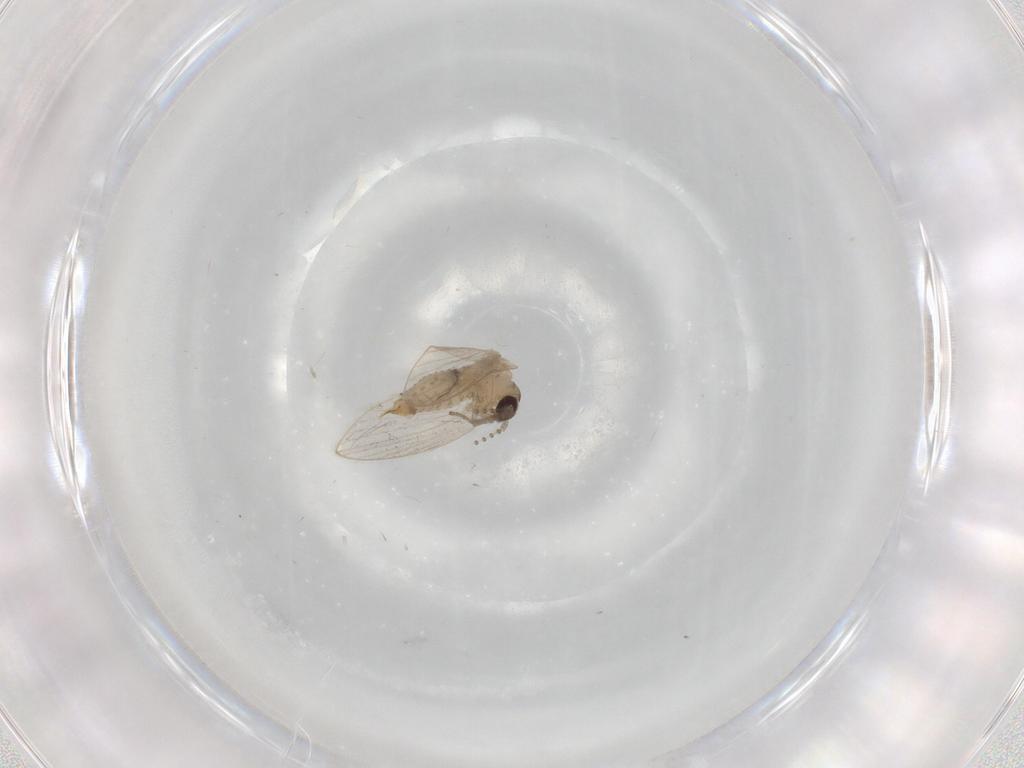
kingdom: Animalia
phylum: Arthropoda
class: Insecta
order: Diptera
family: Psychodidae
